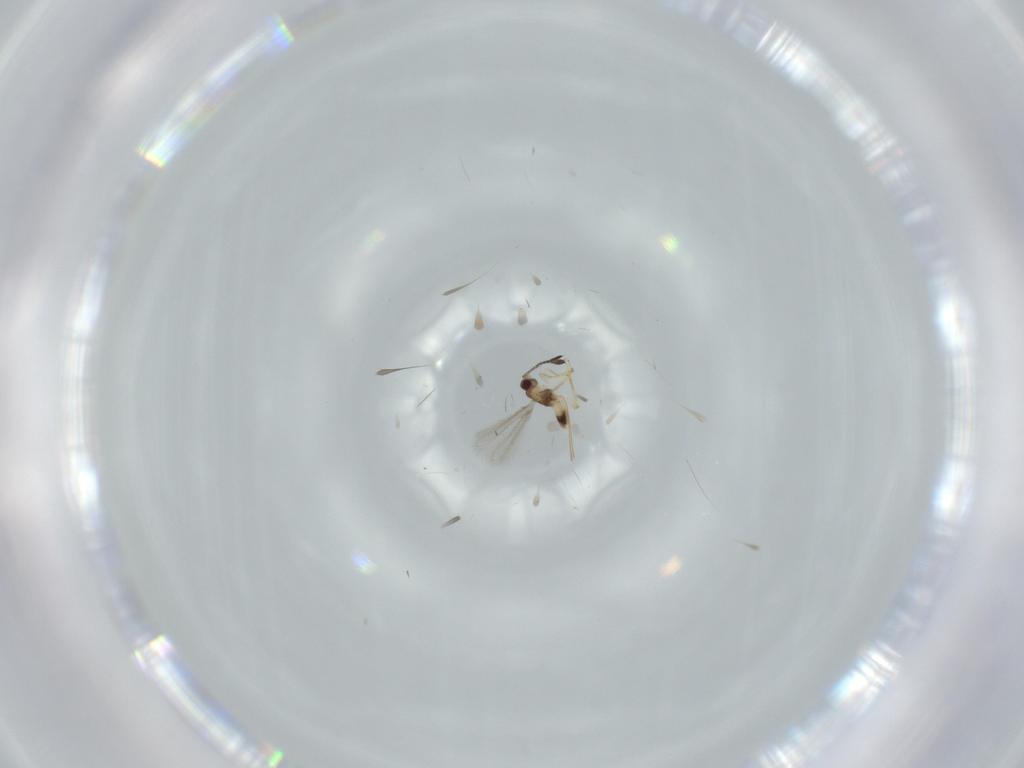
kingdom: Animalia
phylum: Arthropoda
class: Insecta
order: Hymenoptera
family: Mymaridae
